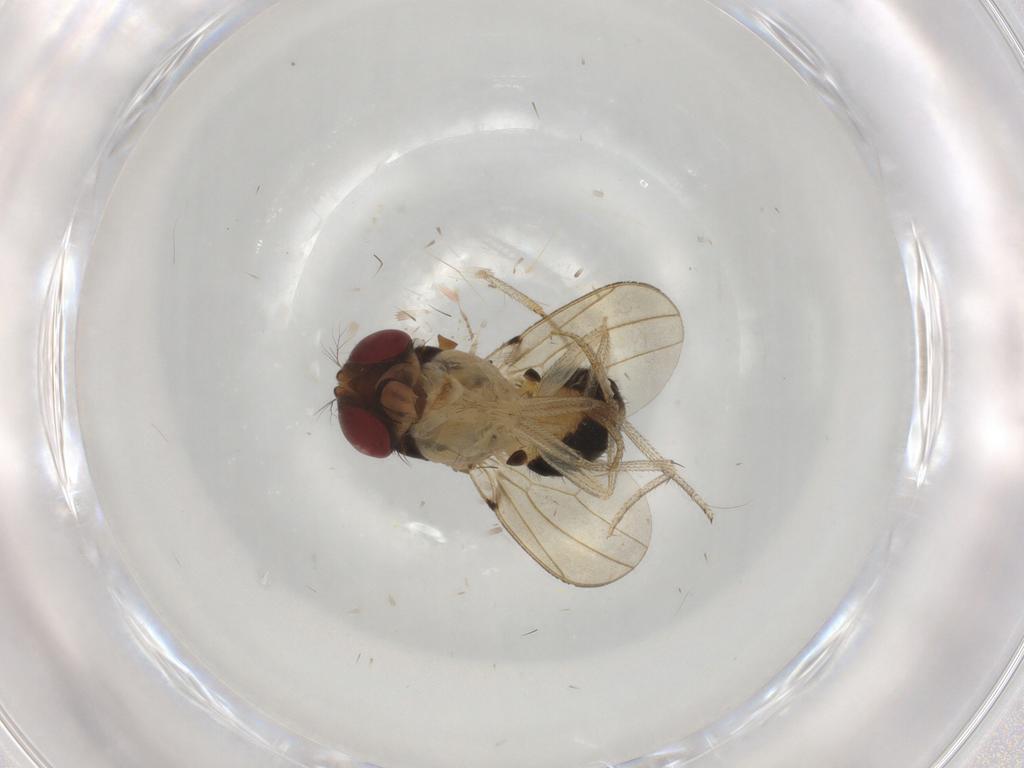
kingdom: Animalia
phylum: Arthropoda
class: Insecta
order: Diptera
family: Drosophilidae
